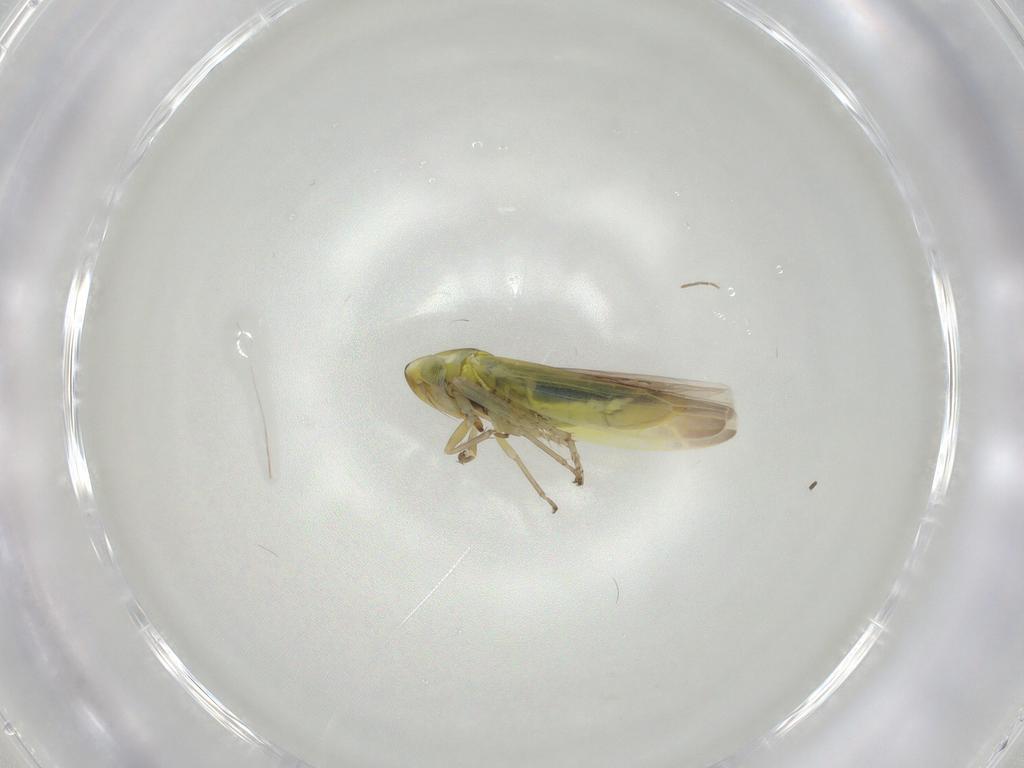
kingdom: Animalia
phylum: Arthropoda
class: Insecta
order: Hemiptera
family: Cicadellidae
